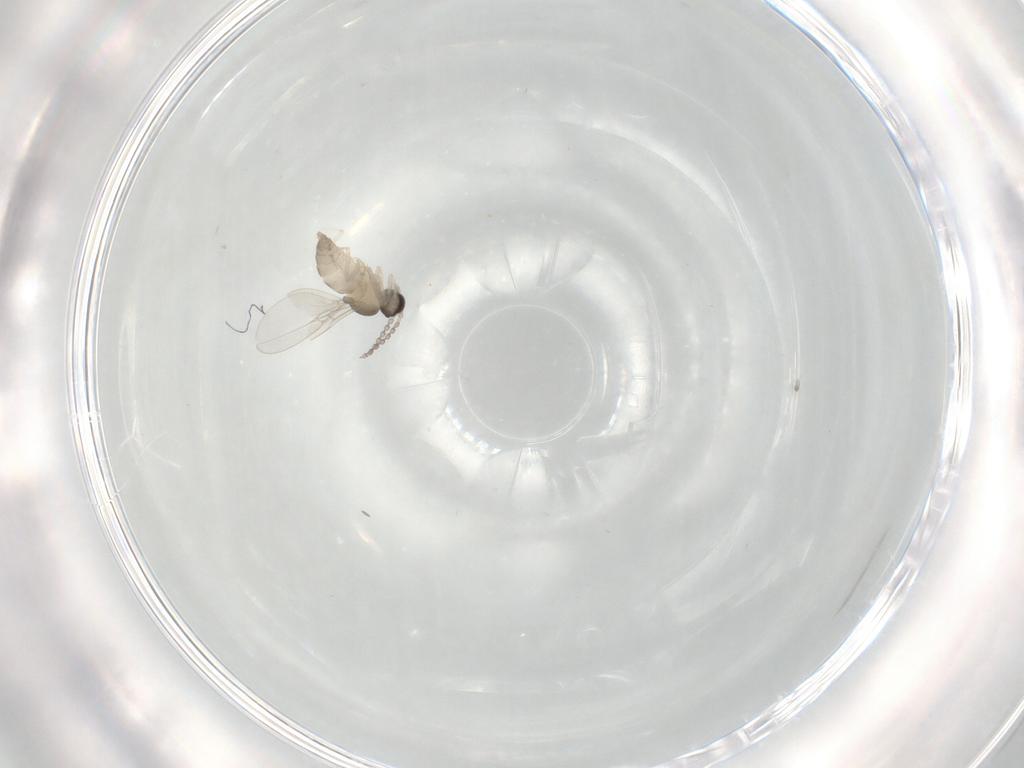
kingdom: Animalia
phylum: Arthropoda
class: Insecta
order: Diptera
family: Cecidomyiidae
